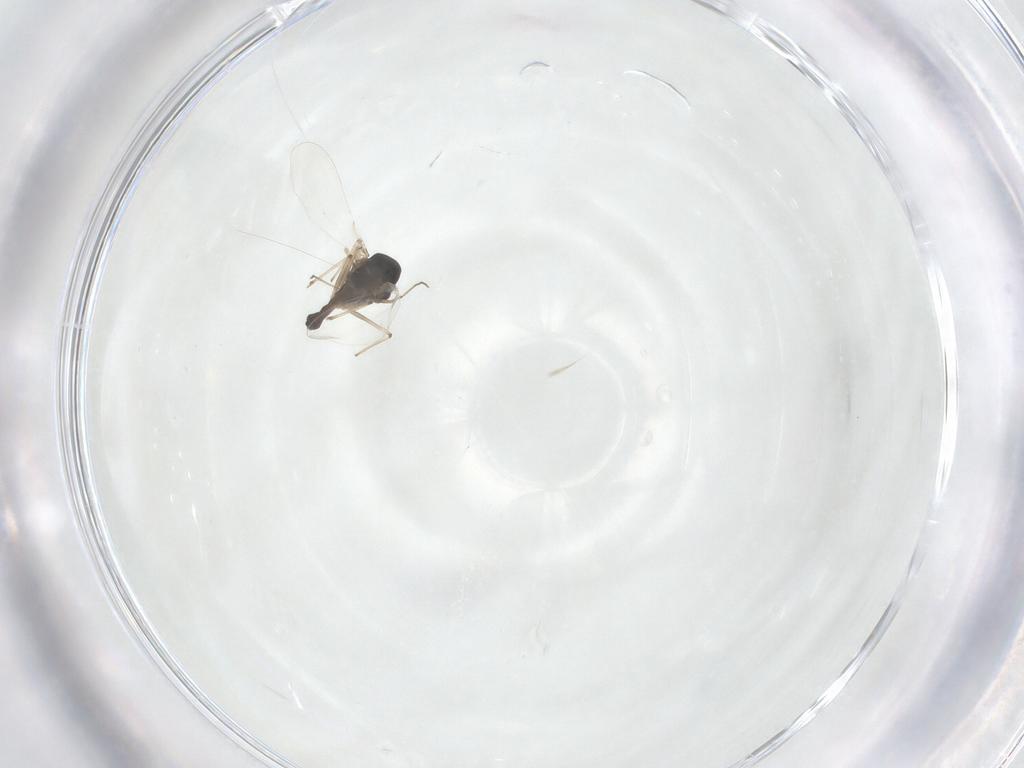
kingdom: Animalia
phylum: Arthropoda
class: Insecta
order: Diptera
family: Chironomidae
